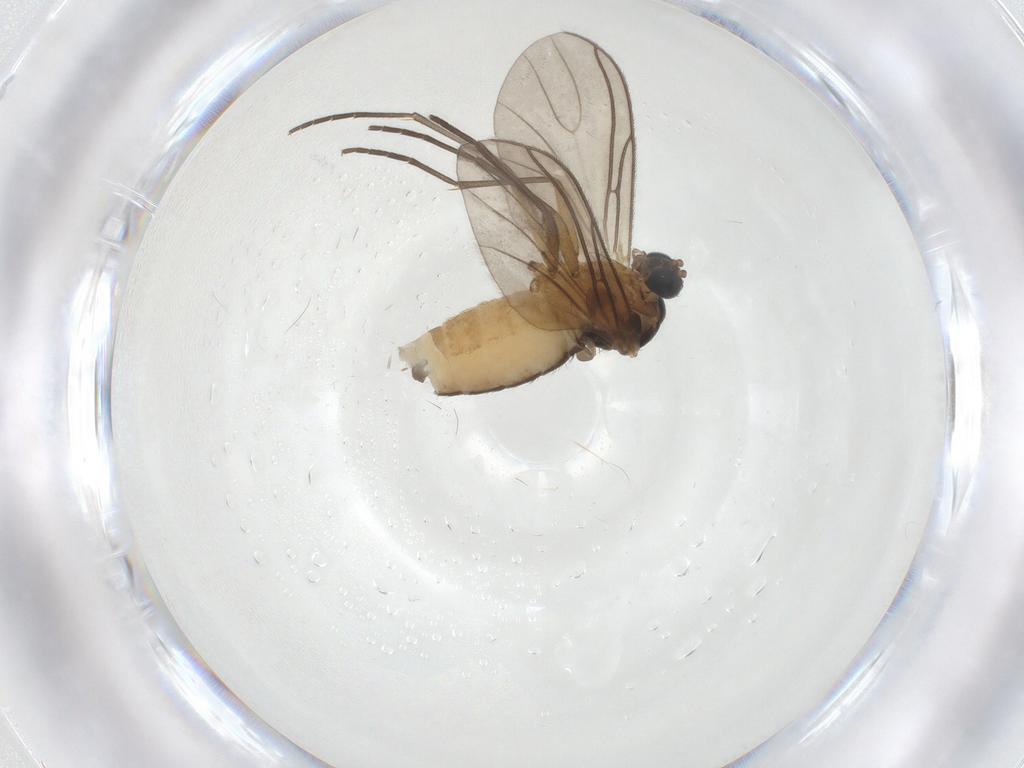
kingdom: Animalia
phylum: Arthropoda
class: Insecta
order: Diptera
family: Sciaridae
